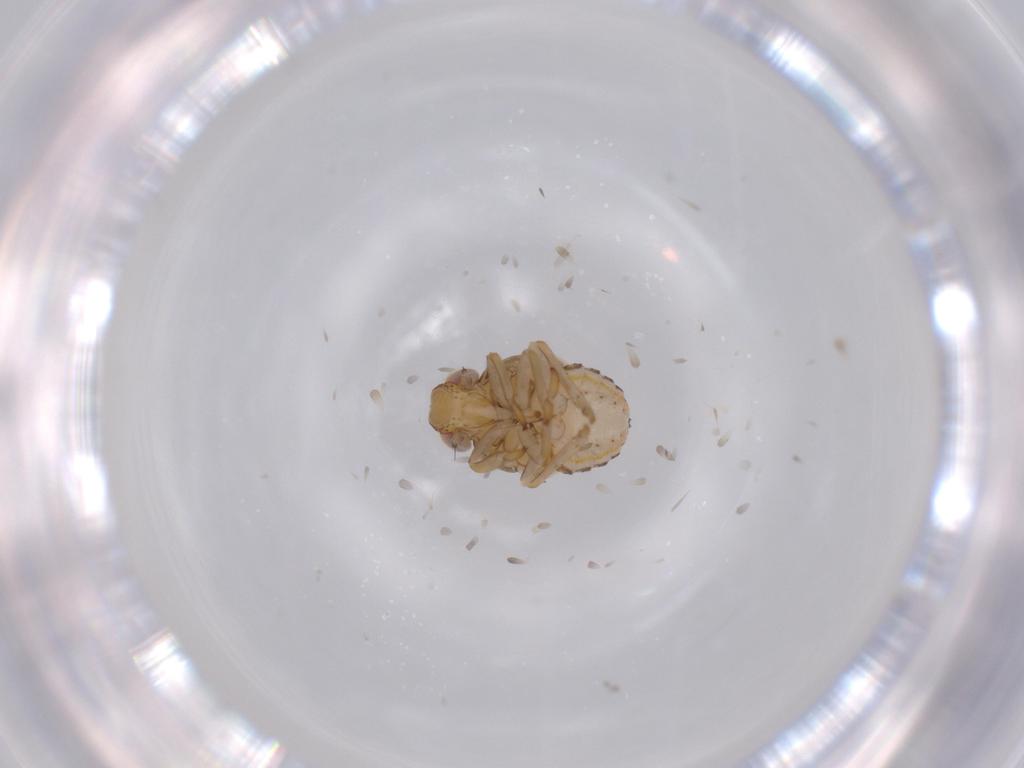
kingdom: Animalia
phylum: Arthropoda
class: Insecta
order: Hemiptera
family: Issidae
